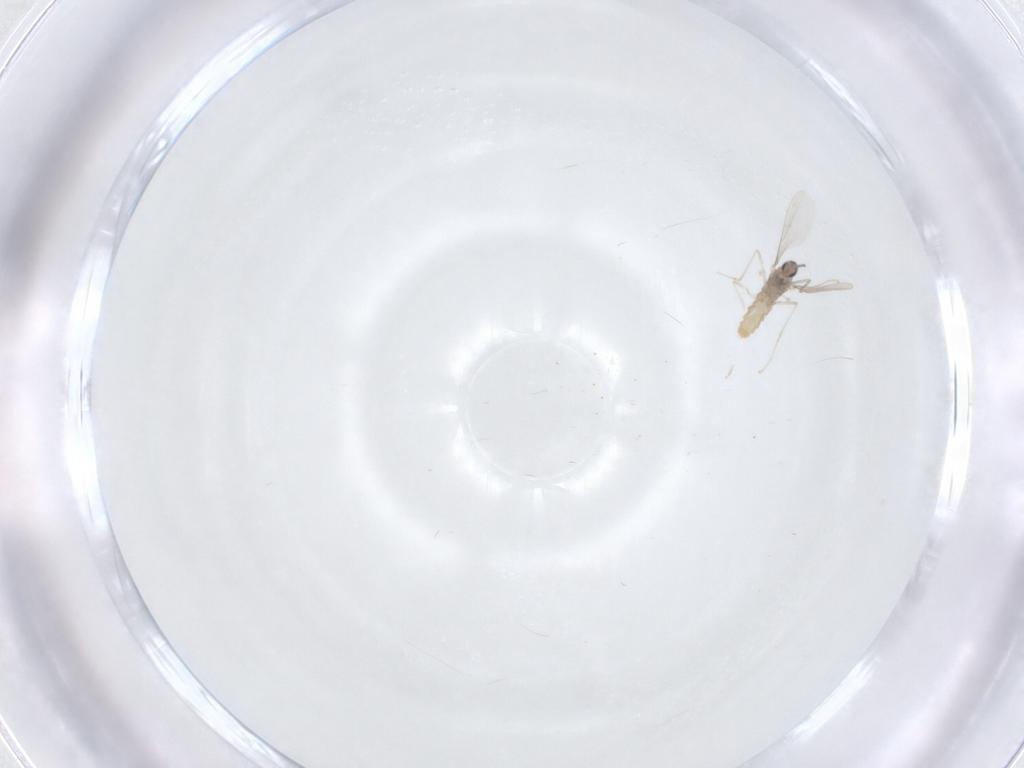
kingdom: Animalia
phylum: Arthropoda
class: Insecta
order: Diptera
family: Cecidomyiidae
